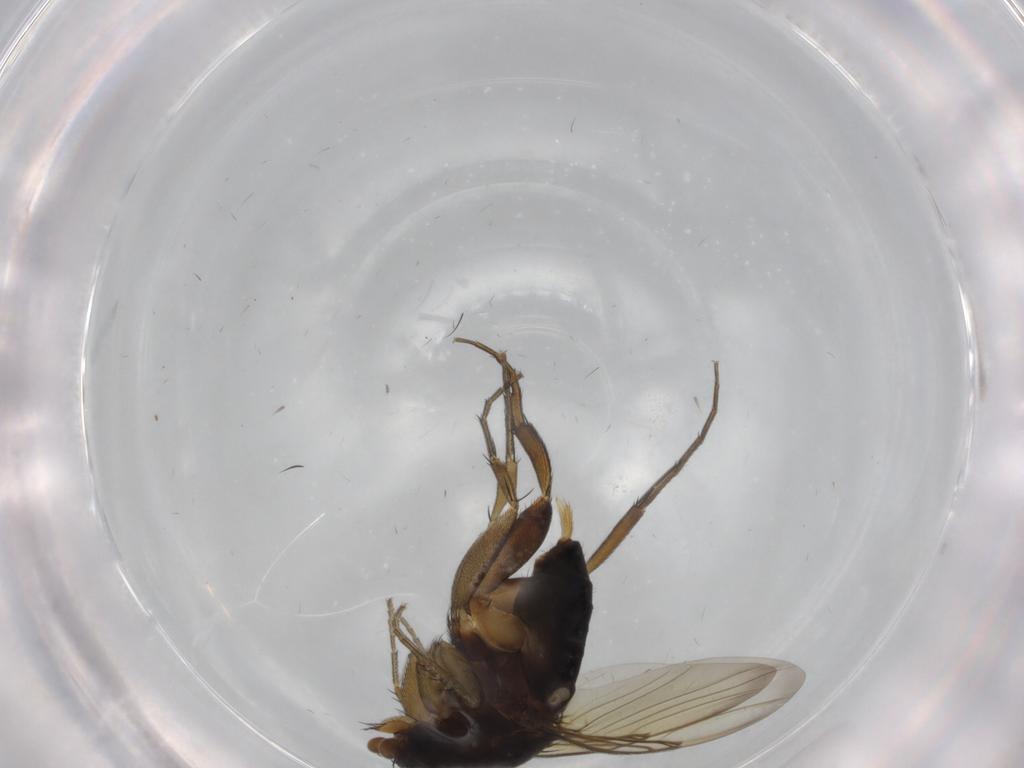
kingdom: Animalia
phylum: Arthropoda
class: Insecta
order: Diptera
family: Phoridae
